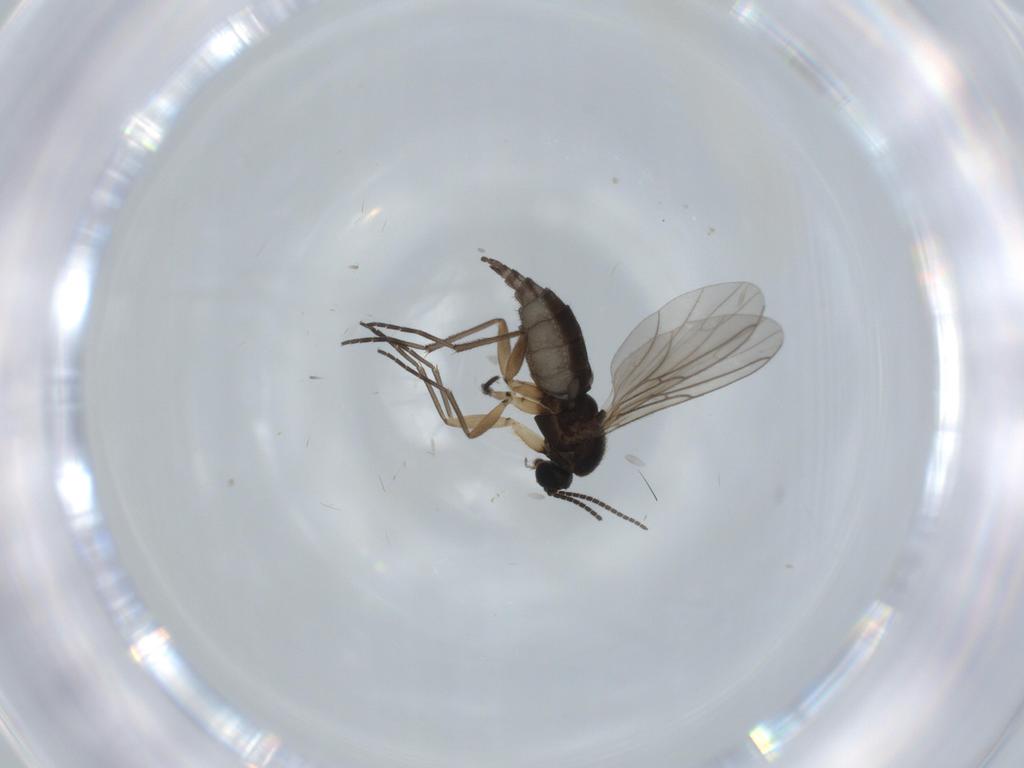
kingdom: Animalia
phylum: Arthropoda
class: Insecta
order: Diptera
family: Sciaridae
